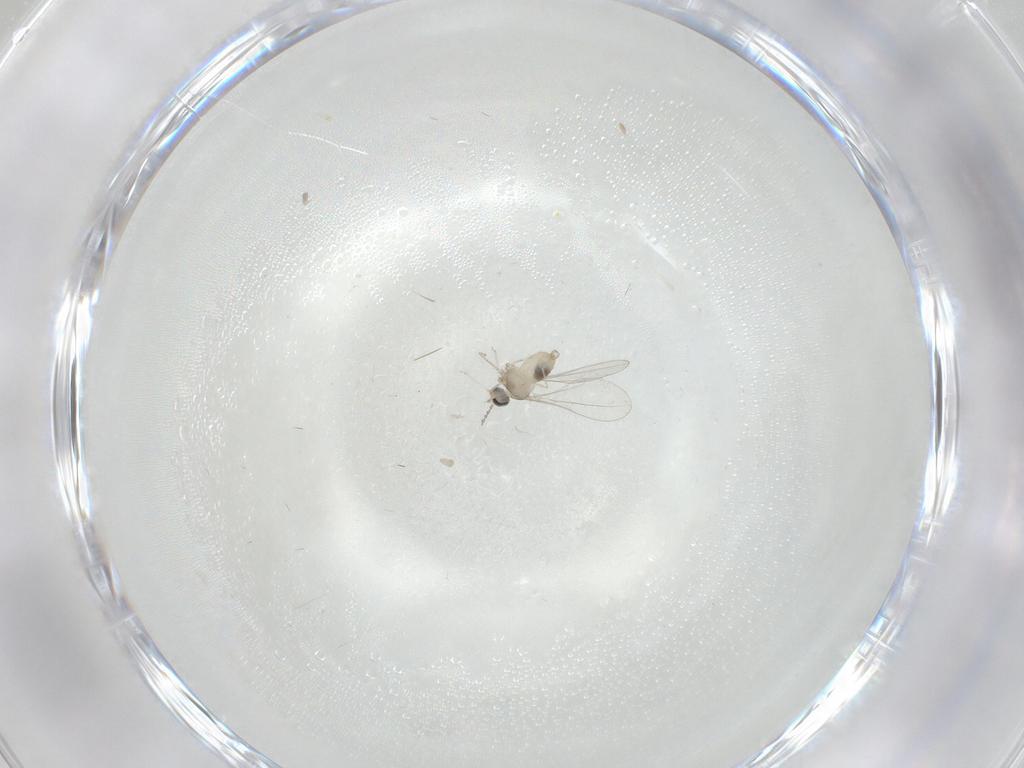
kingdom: Animalia
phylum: Arthropoda
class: Insecta
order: Diptera
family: Cecidomyiidae
